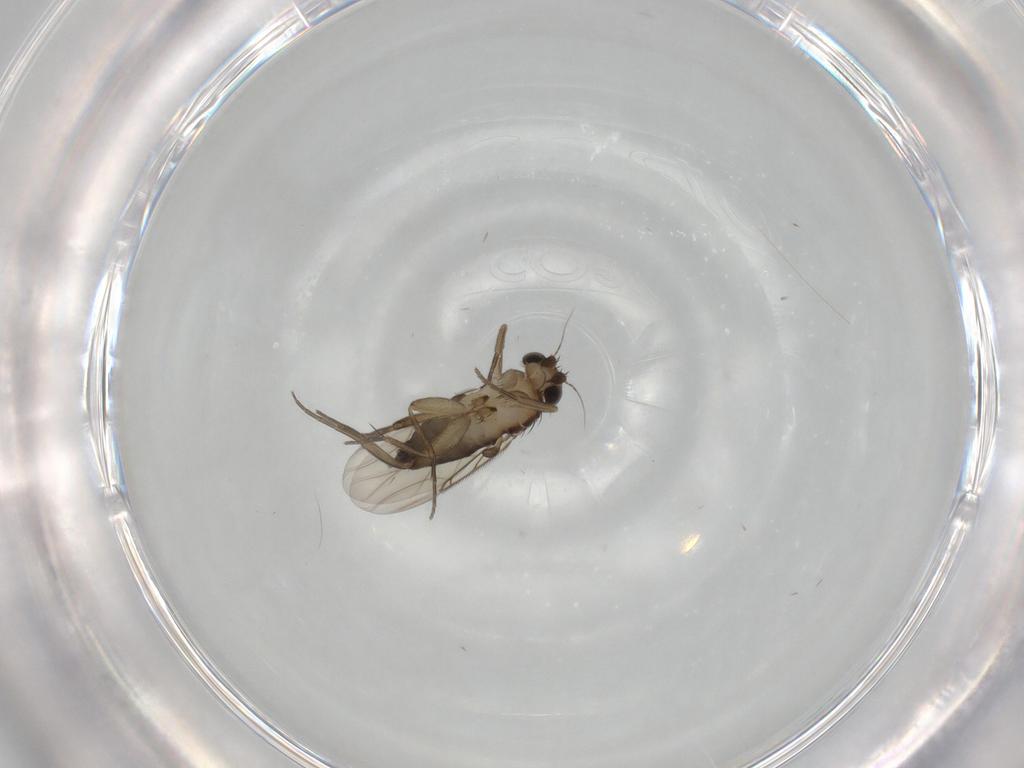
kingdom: Animalia
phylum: Arthropoda
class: Insecta
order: Diptera
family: Phoridae
